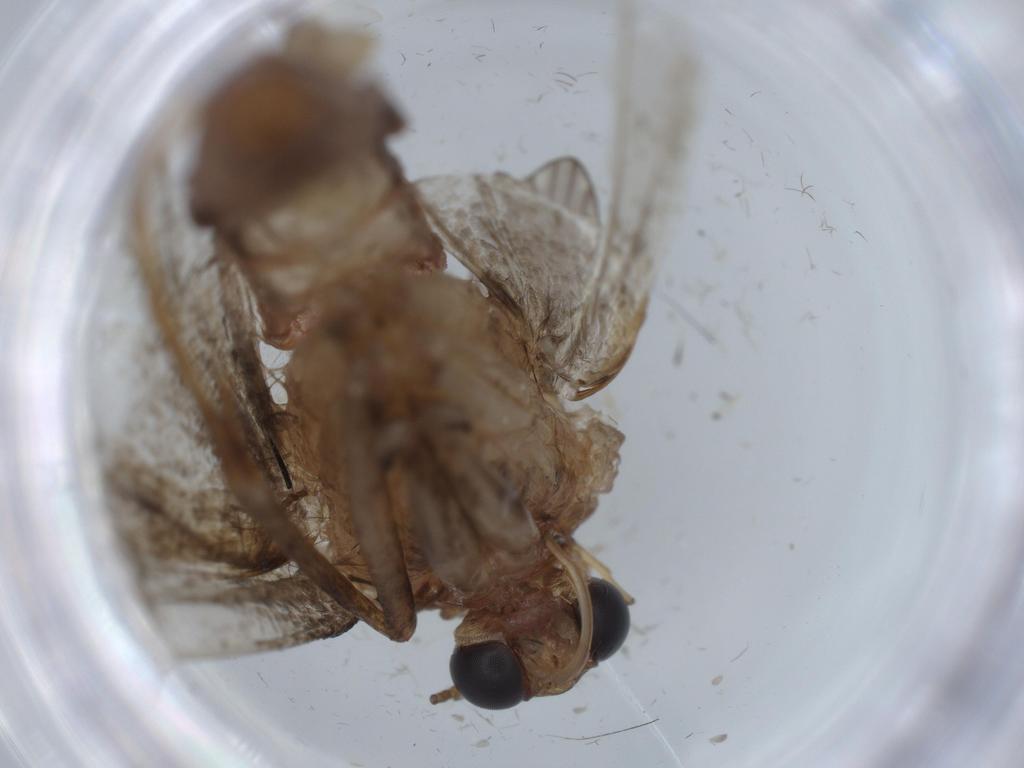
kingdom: Animalia
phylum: Arthropoda
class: Insecta
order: Lepidoptera
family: Erebidae
